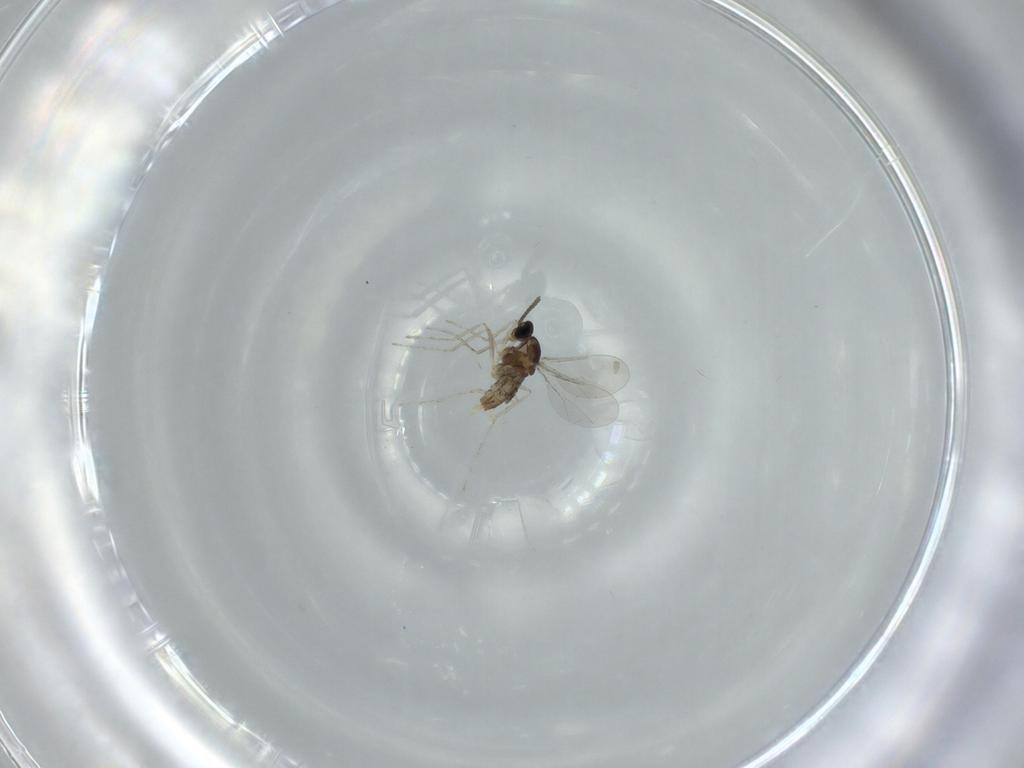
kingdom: Animalia
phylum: Arthropoda
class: Insecta
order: Diptera
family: Cecidomyiidae
